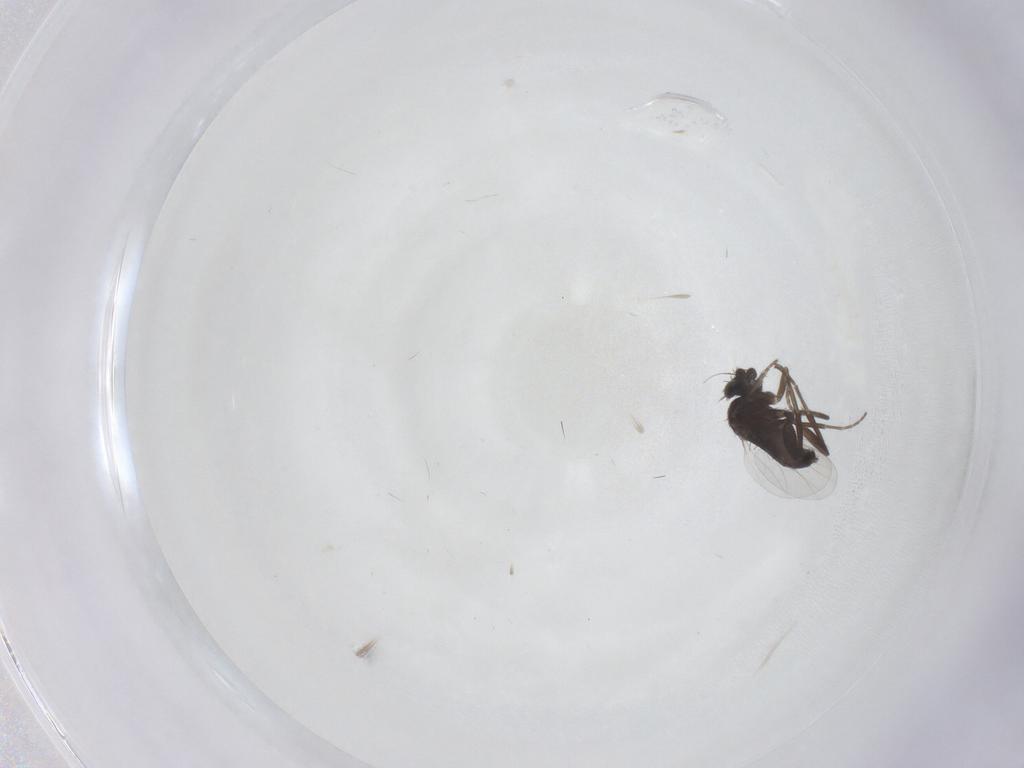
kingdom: Animalia
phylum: Arthropoda
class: Insecta
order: Diptera
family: Phoridae
